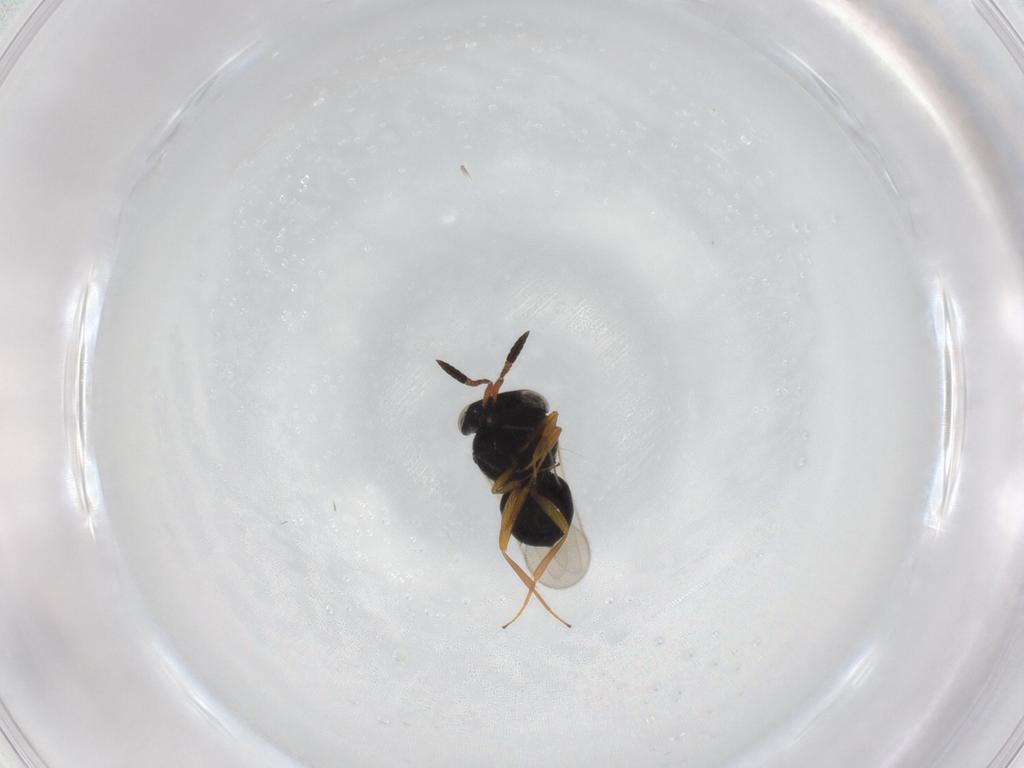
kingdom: Animalia
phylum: Arthropoda
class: Insecta
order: Hymenoptera
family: Scelionidae
